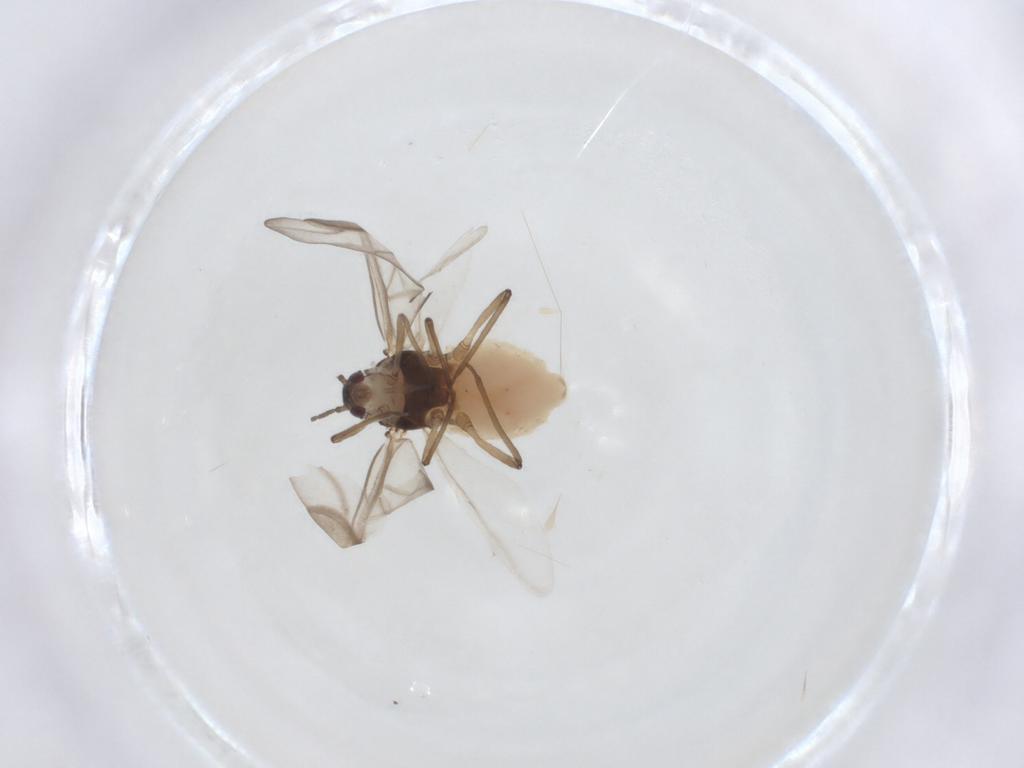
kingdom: Animalia
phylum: Arthropoda
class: Insecta
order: Hemiptera
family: Aphididae
